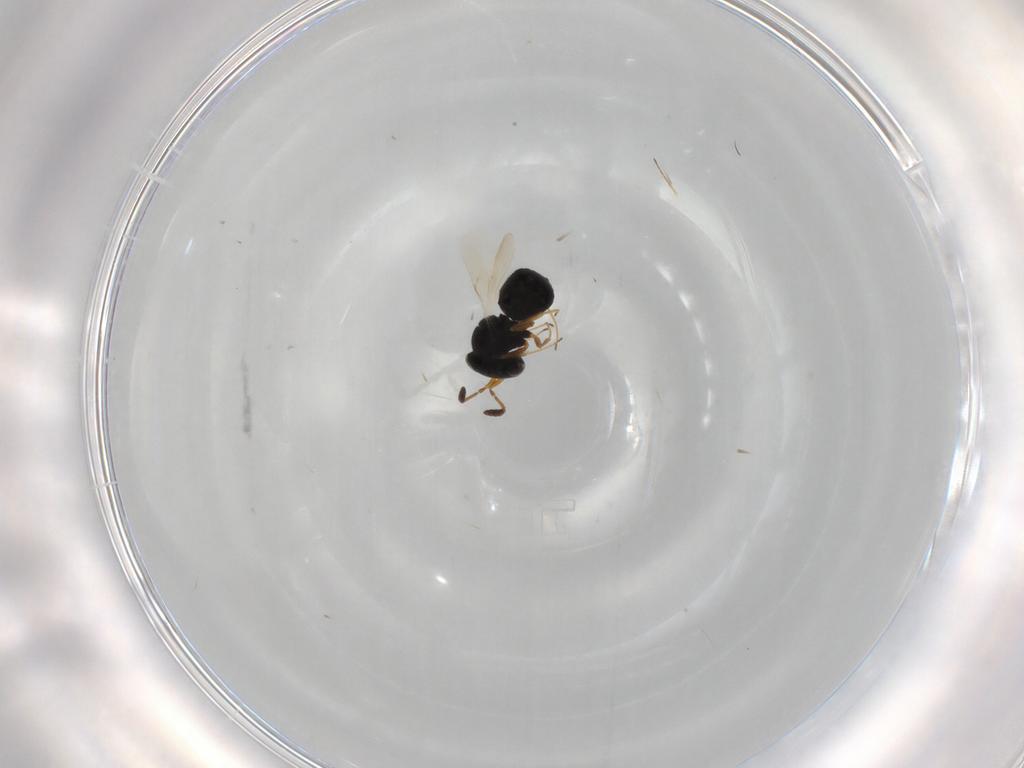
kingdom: Animalia
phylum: Arthropoda
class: Insecta
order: Hymenoptera
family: Scelionidae
